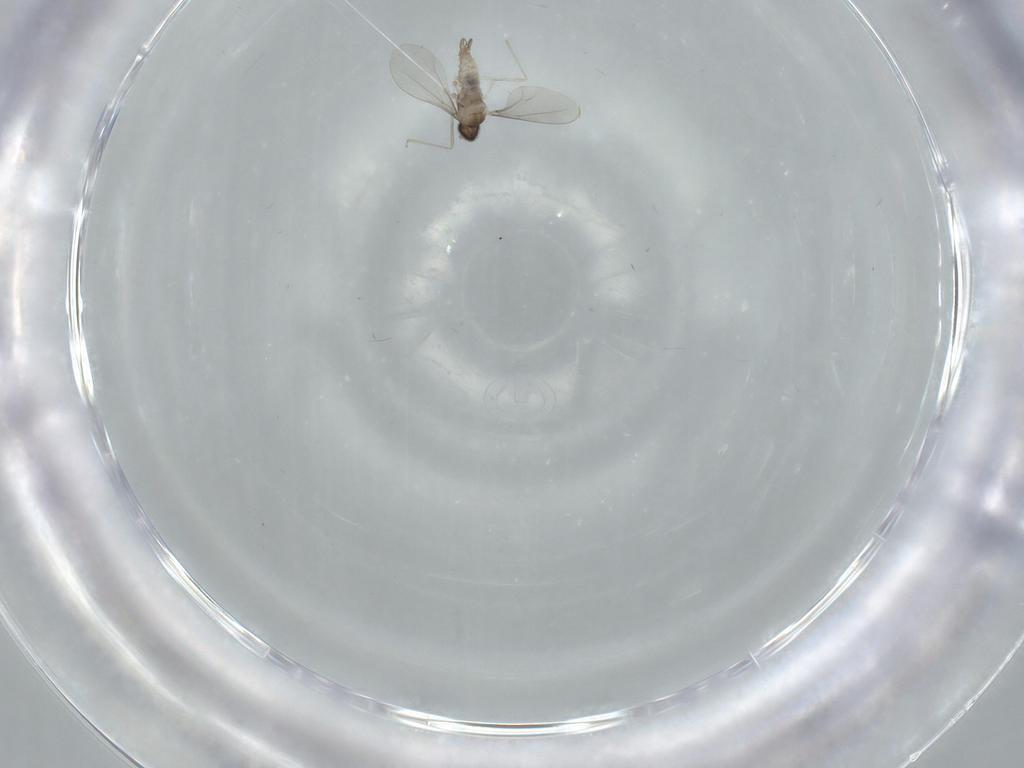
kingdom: Animalia
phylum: Arthropoda
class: Insecta
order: Diptera
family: Cecidomyiidae
